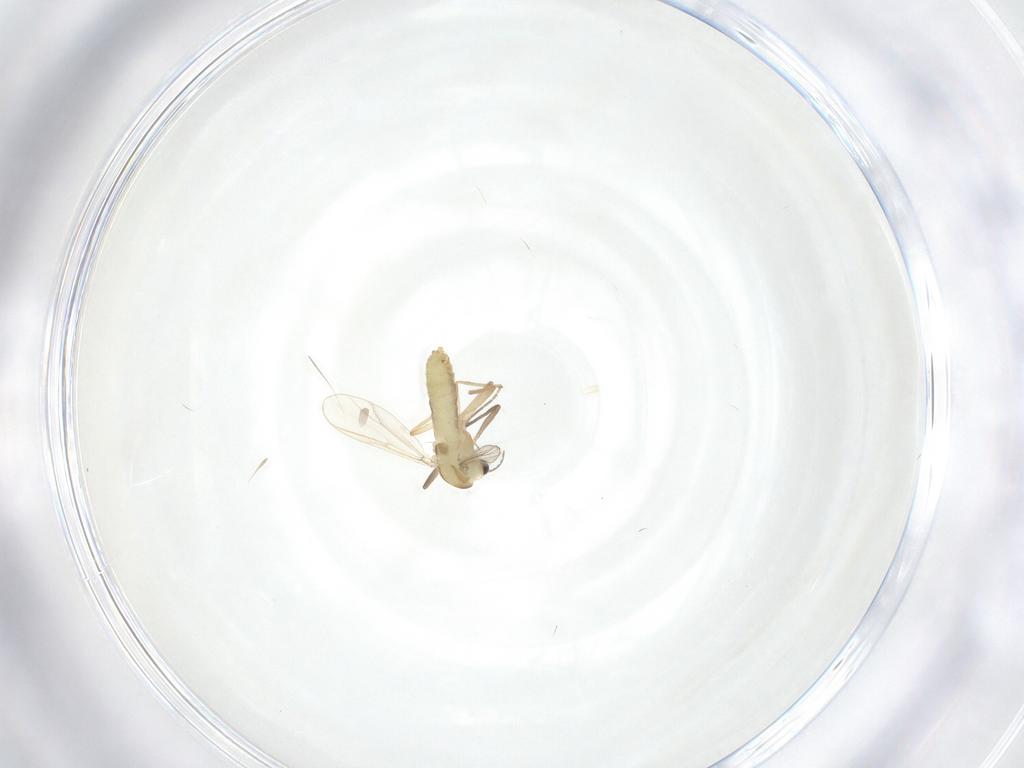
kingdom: Animalia
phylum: Arthropoda
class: Insecta
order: Diptera
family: Chironomidae
